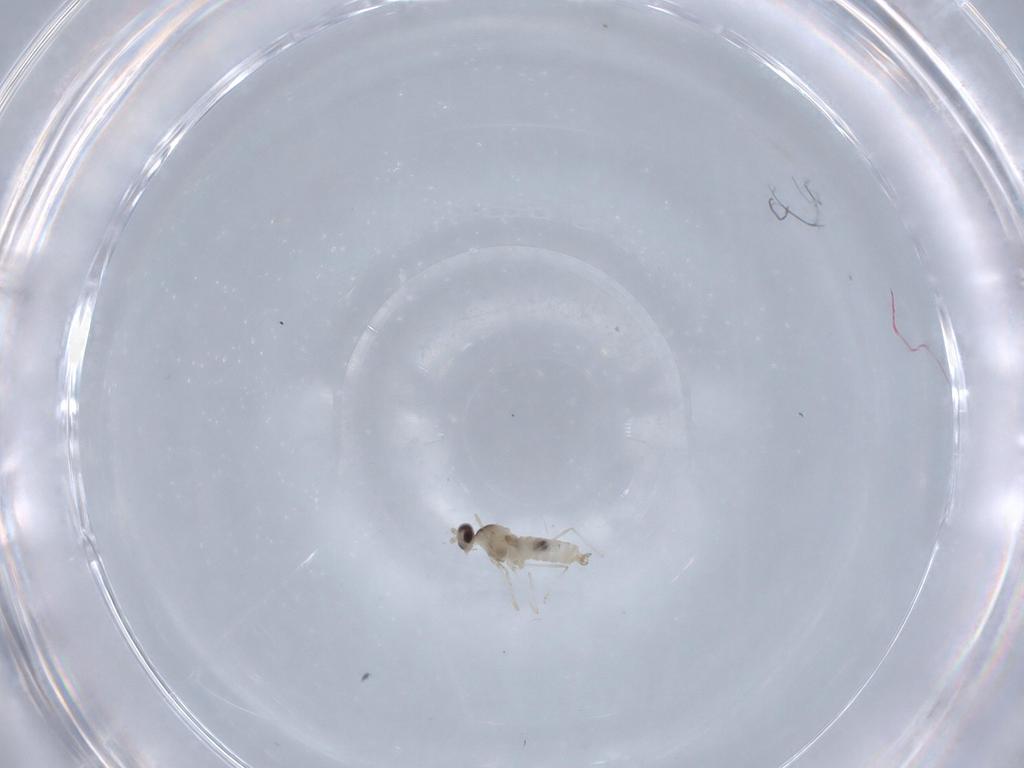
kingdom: Animalia
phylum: Arthropoda
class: Insecta
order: Diptera
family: Cecidomyiidae
